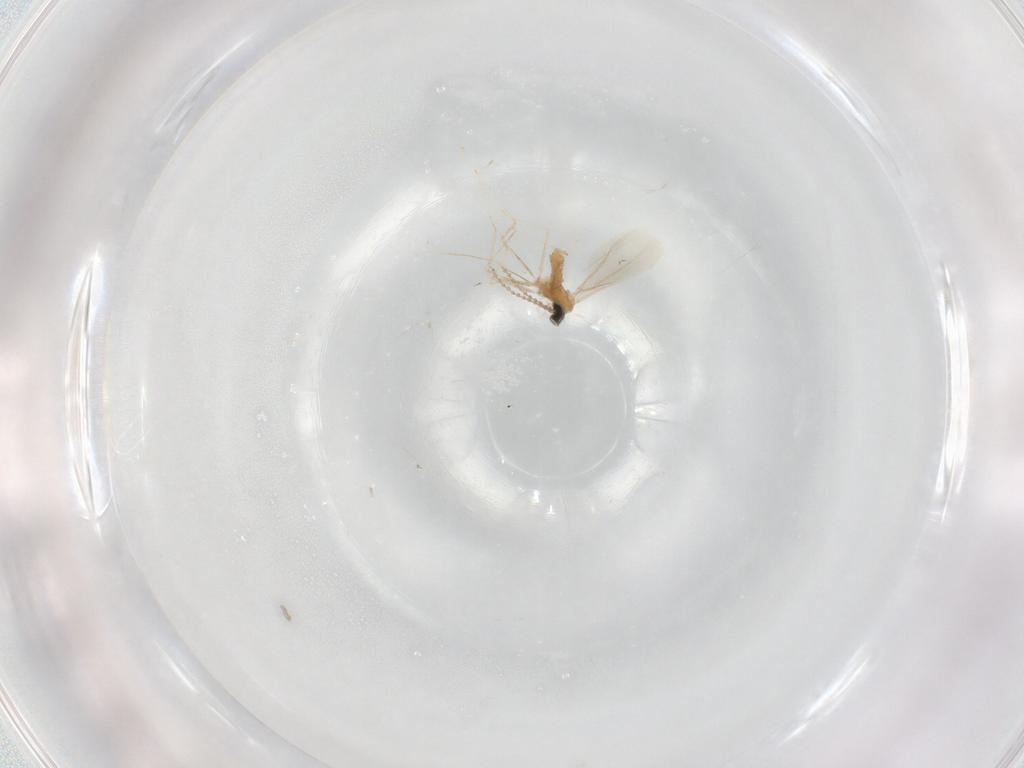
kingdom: Animalia
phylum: Arthropoda
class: Insecta
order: Diptera
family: Cecidomyiidae
